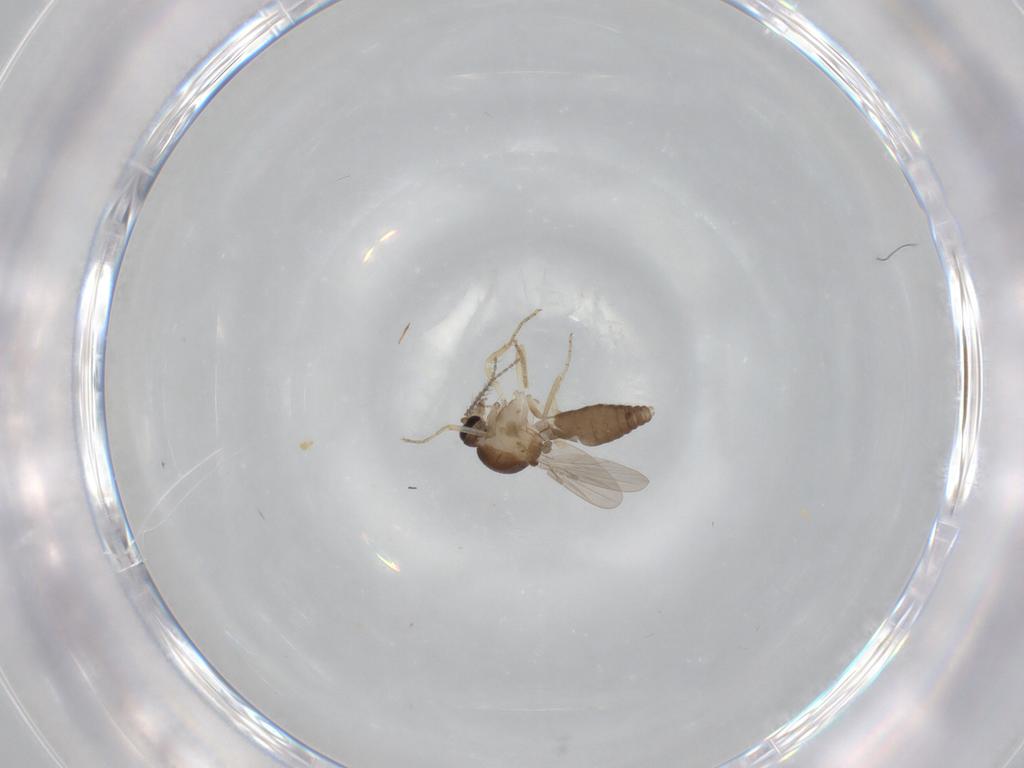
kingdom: Animalia
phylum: Arthropoda
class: Insecta
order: Diptera
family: Ceratopogonidae
